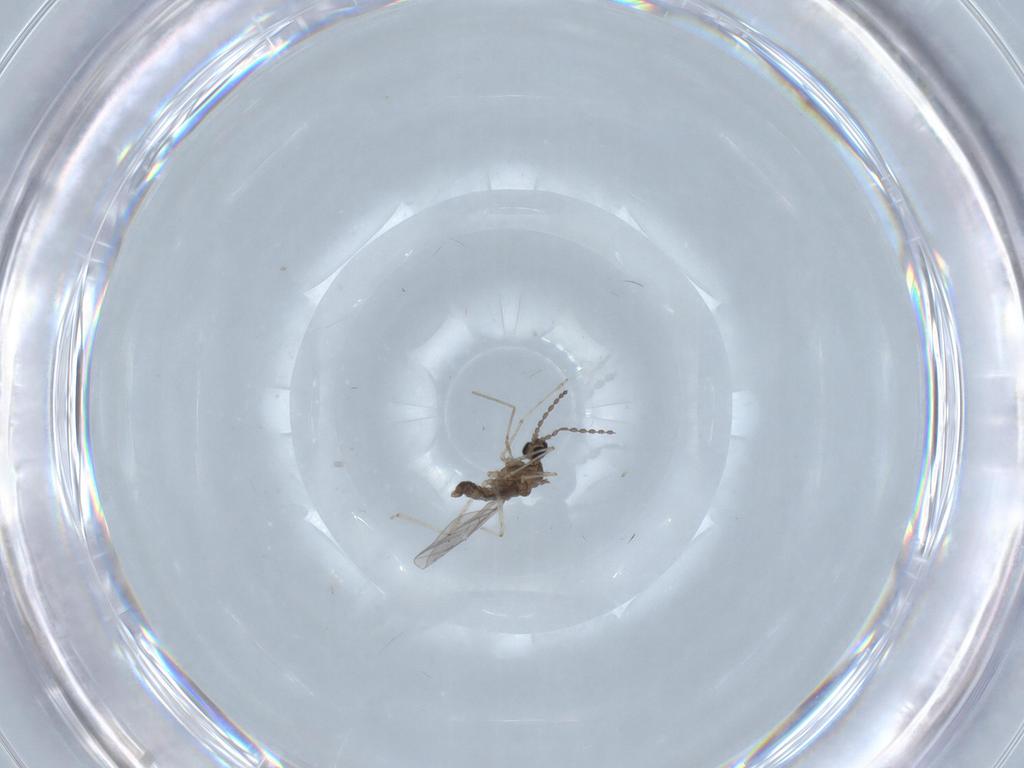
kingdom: Animalia
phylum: Arthropoda
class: Insecta
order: Diptera
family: Cecidomyiidae
